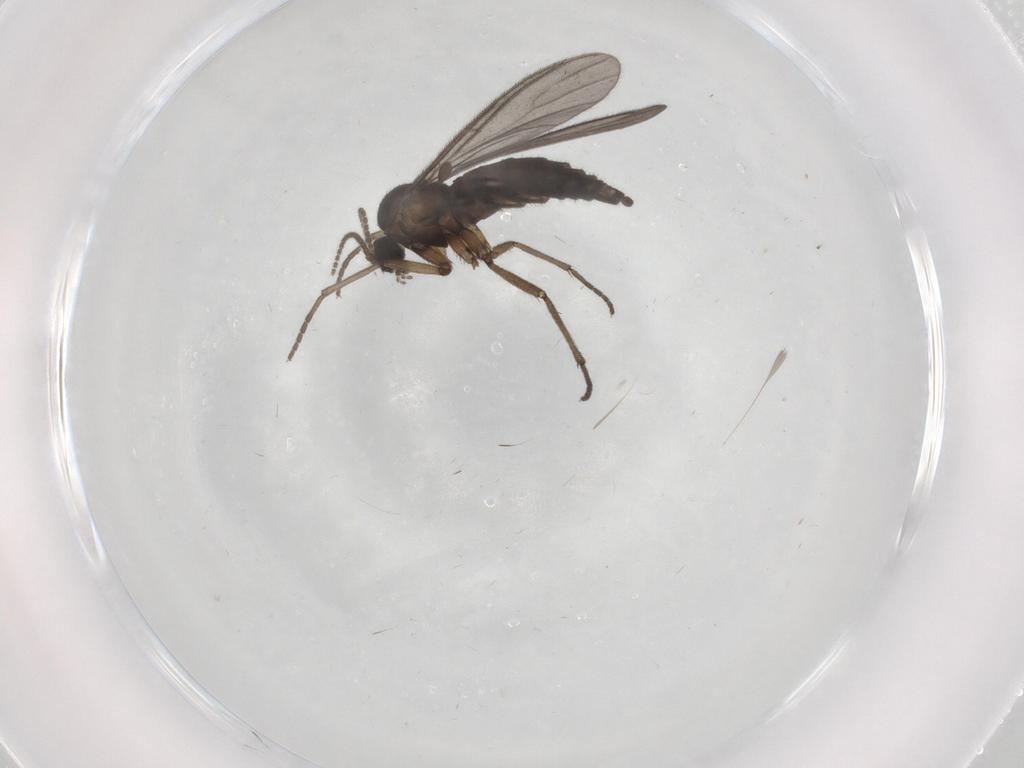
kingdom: Animalia
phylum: Arthropoda
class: Insecta
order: Diptera
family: Sciaridae
